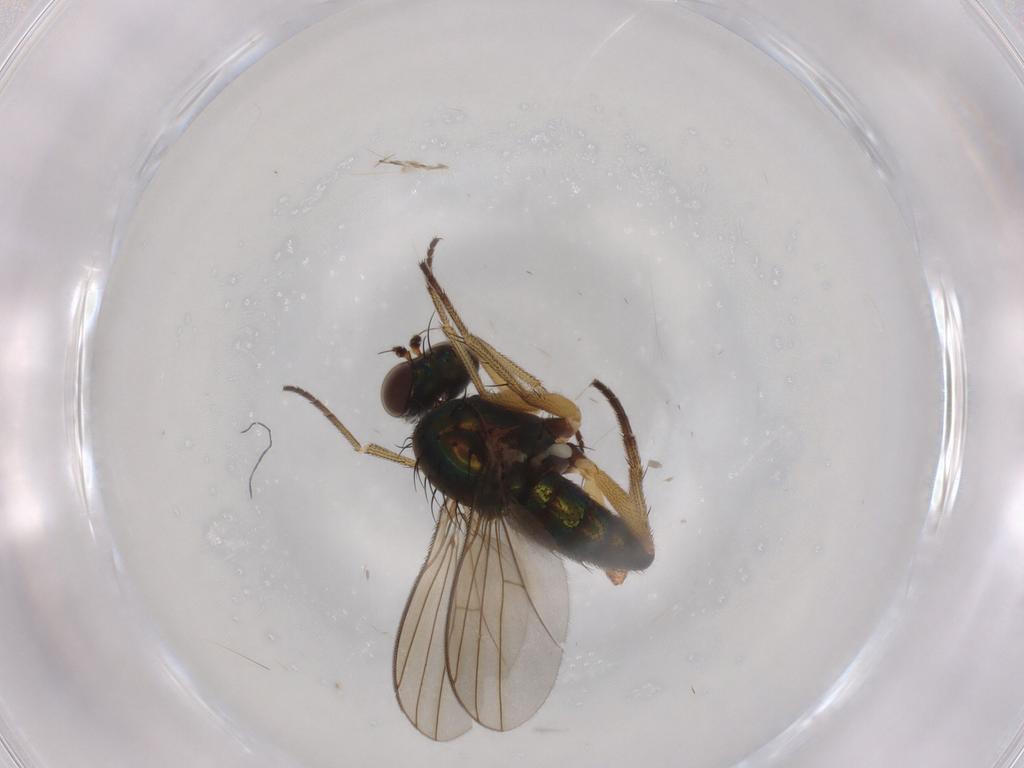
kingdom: Animalia
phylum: Arthropoda
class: Insecta
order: Diptera
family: Dolichopodidae
